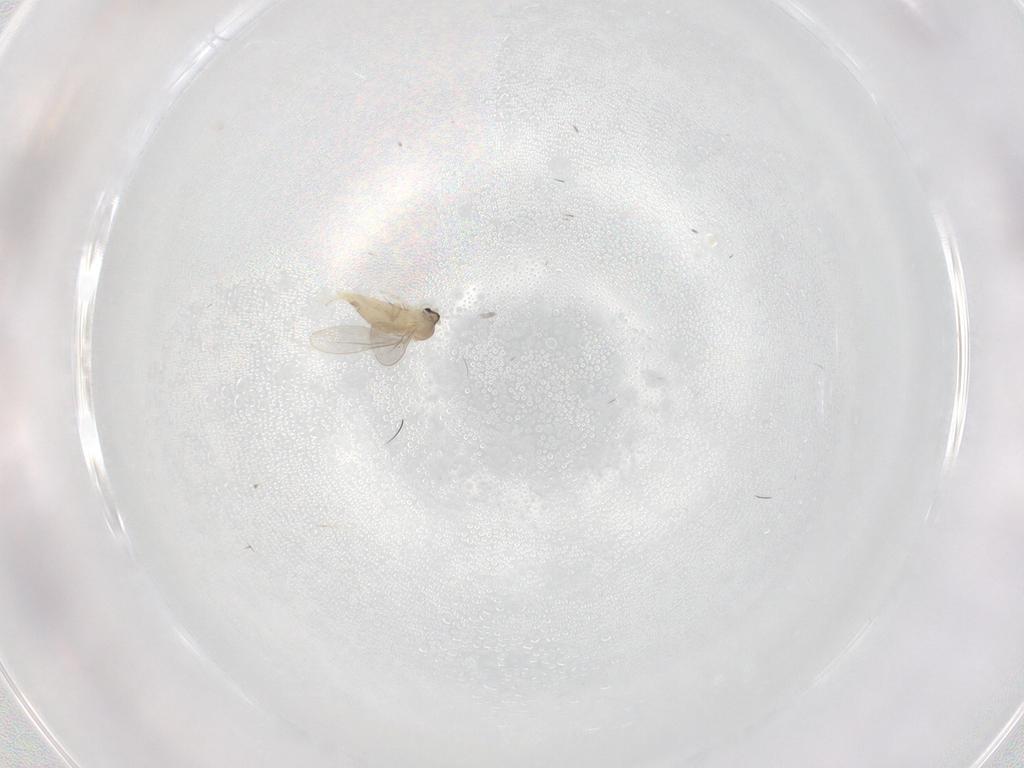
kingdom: Animalia
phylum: Arthropoda
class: Insecta
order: Diptera
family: Cecidomyiidae
